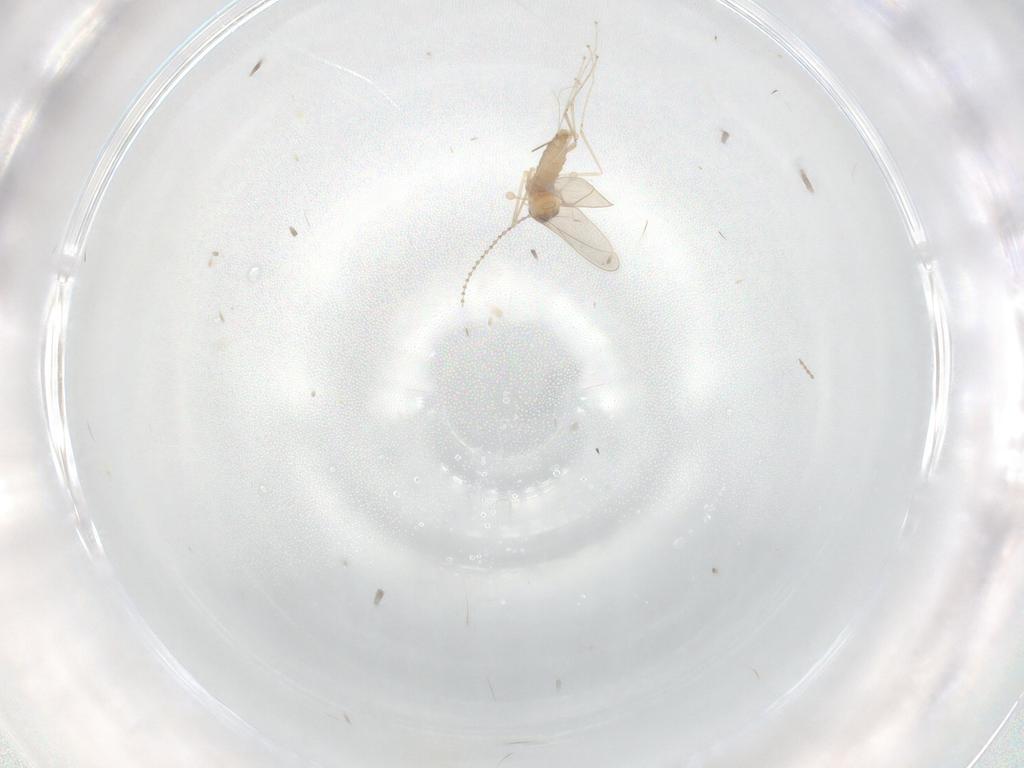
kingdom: Animalia
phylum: Arthropoda
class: Insecta
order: Diptera
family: Cecidomyiidae
